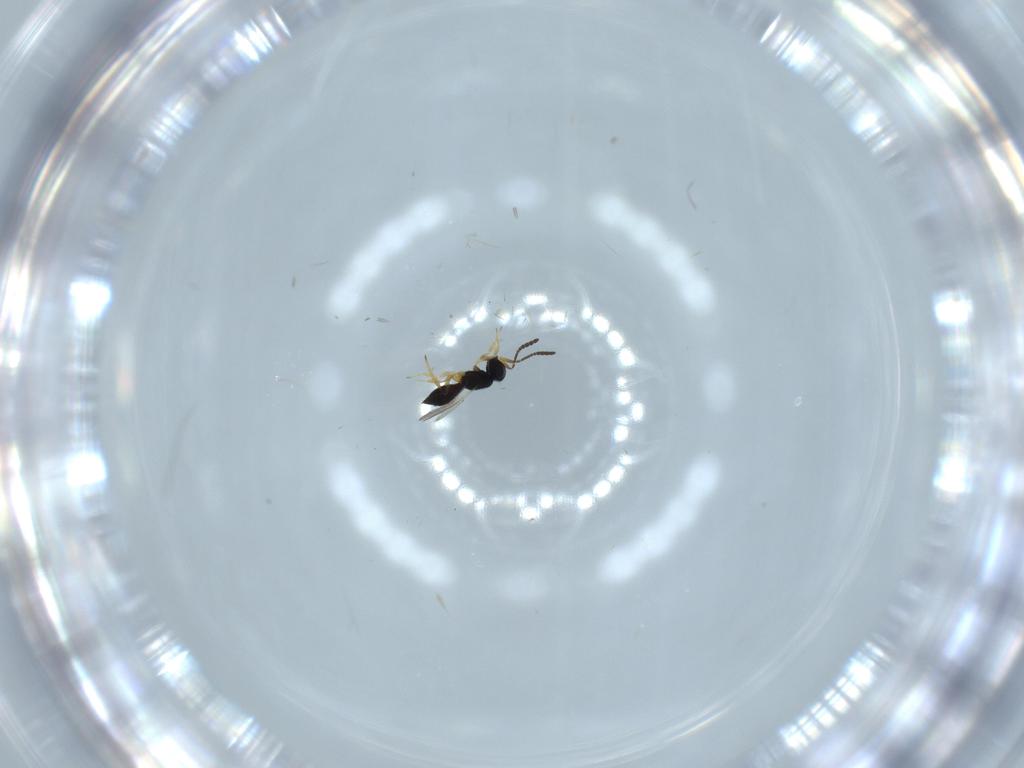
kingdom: Animalia
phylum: Arthropoda
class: Insecta
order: Hymenoptera
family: Scelionidae
